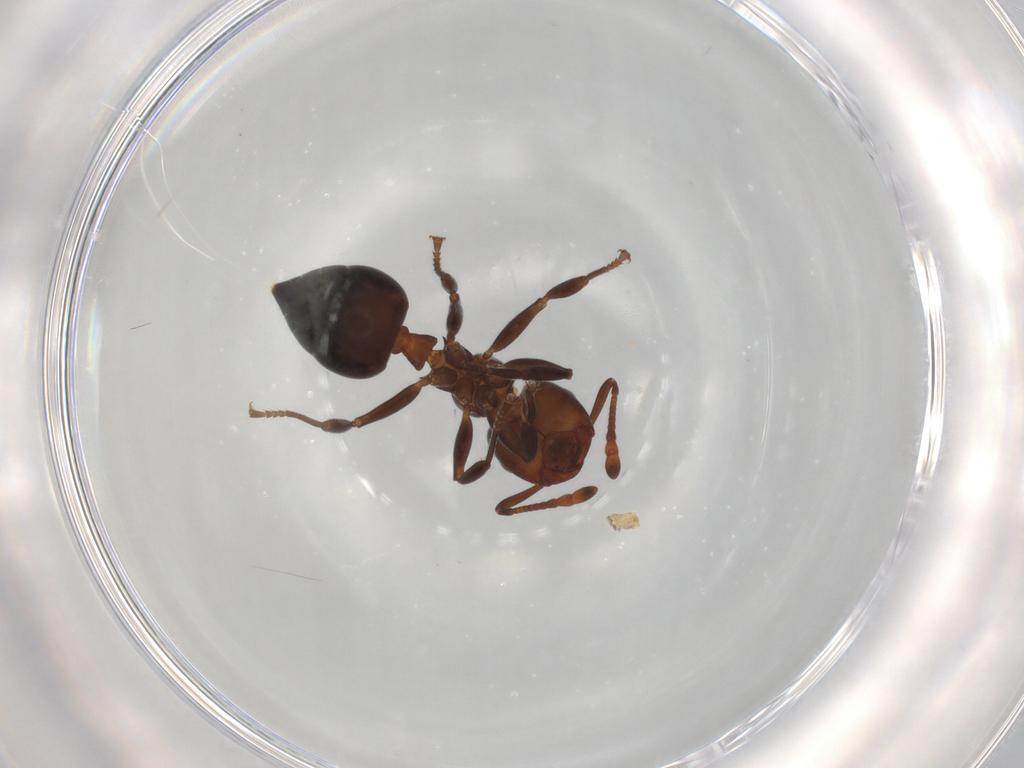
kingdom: Animalia
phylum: Arthropoda
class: Insecta
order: Hymenoptera
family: Formicidae
